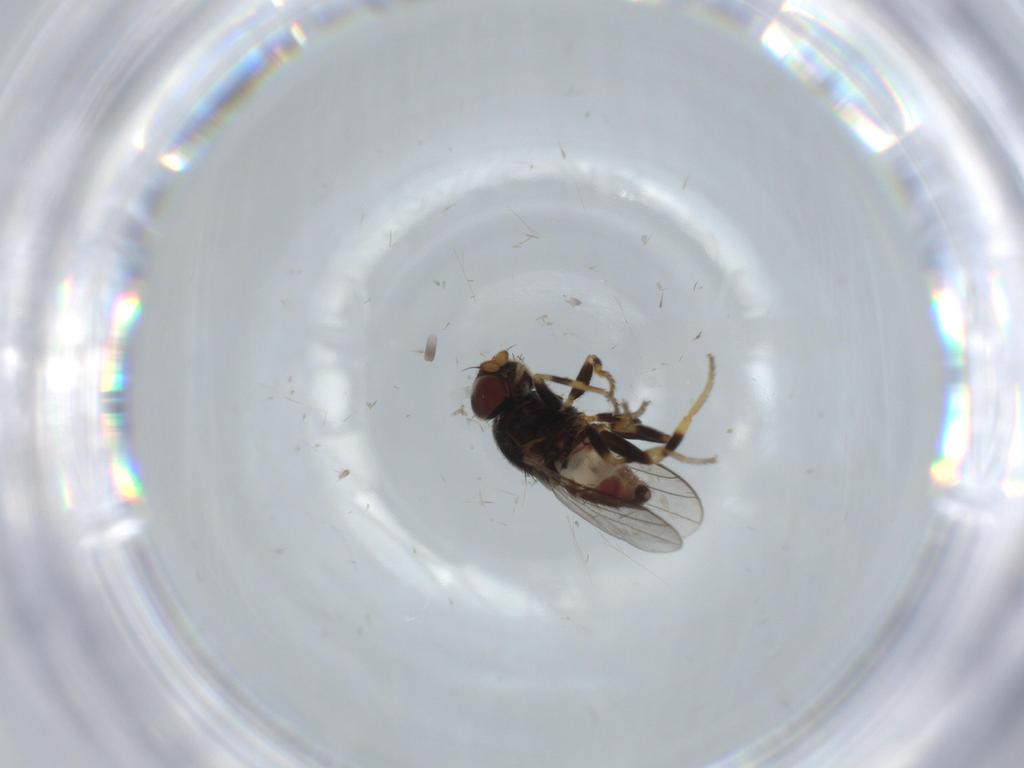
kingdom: Animalia
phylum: Arthropoda
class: Insecta
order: Diptera
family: Chloropidae
